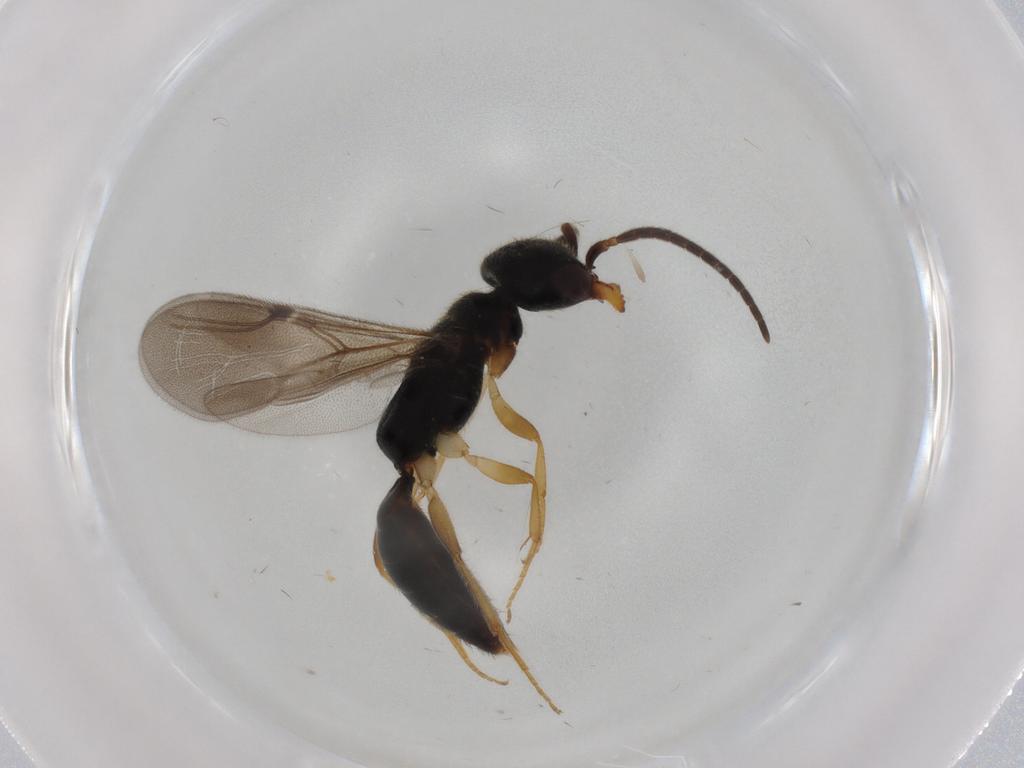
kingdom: Animalia
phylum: Arthropoda
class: Insecta
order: Hymenoptera
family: Bethylidae
